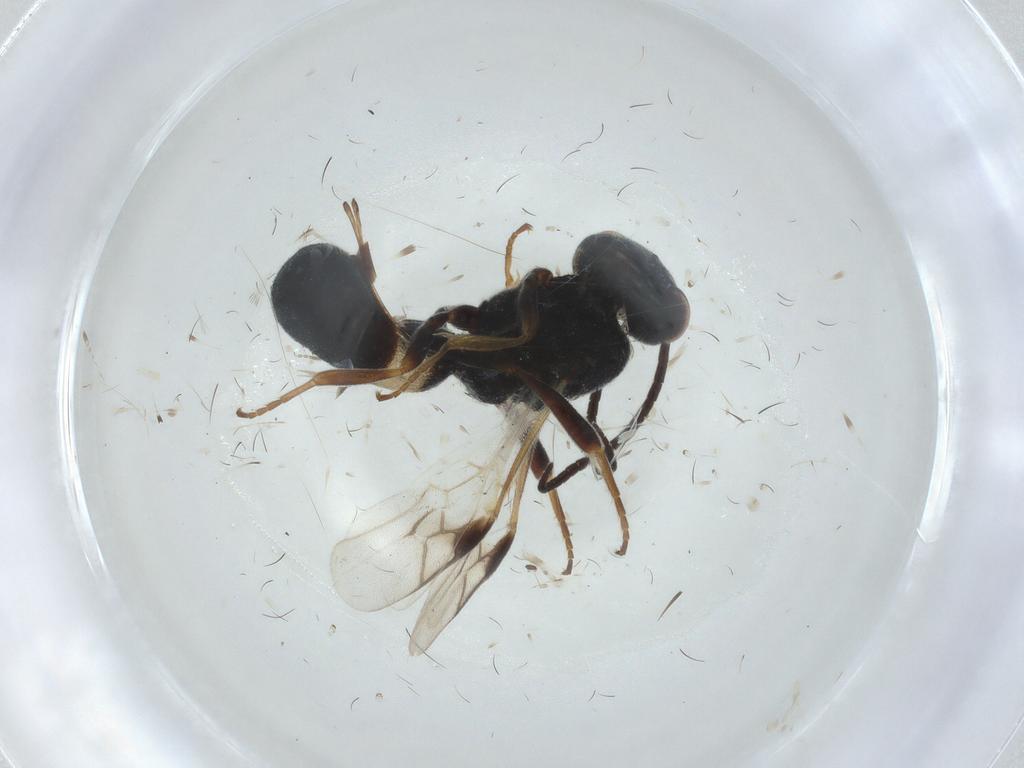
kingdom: Animalia
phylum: Arthropoda
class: Insecta
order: Hymenoptera
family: Braconidae
